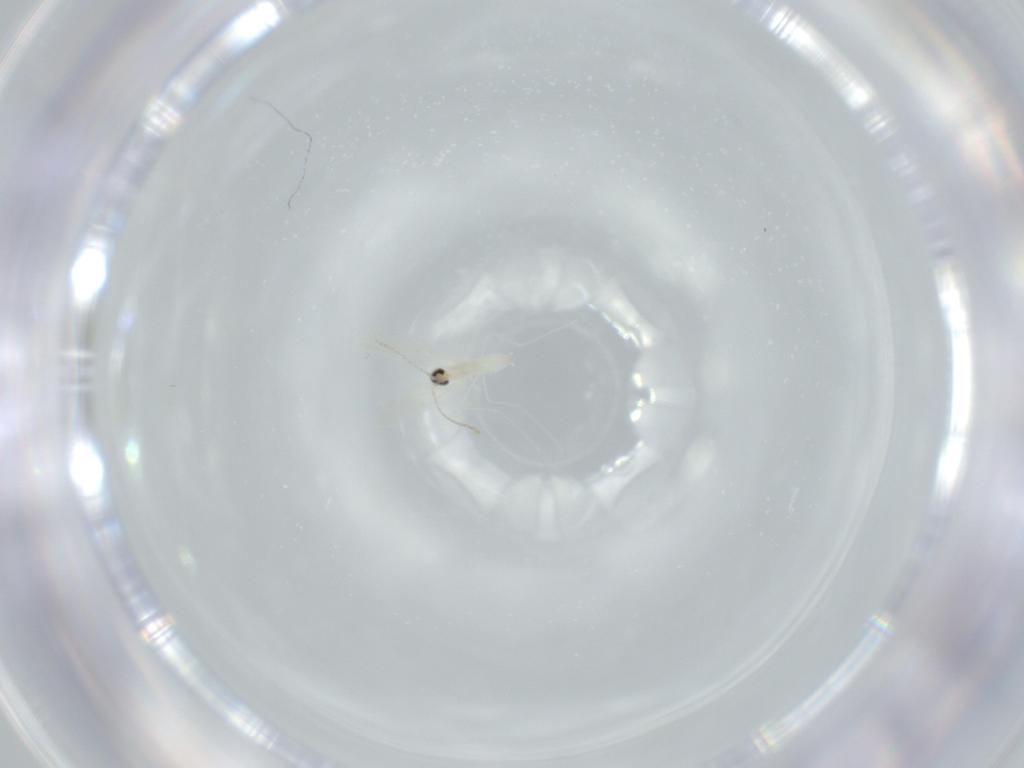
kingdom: Animalia
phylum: Arthropoda
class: Insecta
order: Diptera
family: Cecidomyiidae
